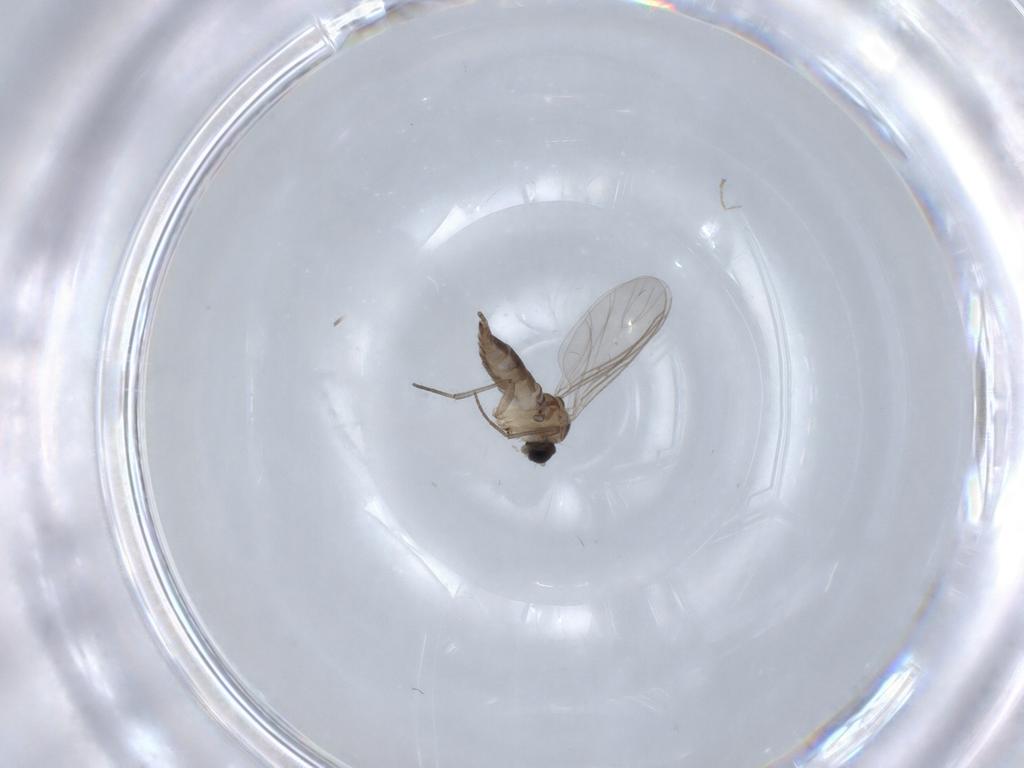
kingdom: Animalia
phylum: Arthropoda
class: Insecta
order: Diptera
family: Sciaridae
